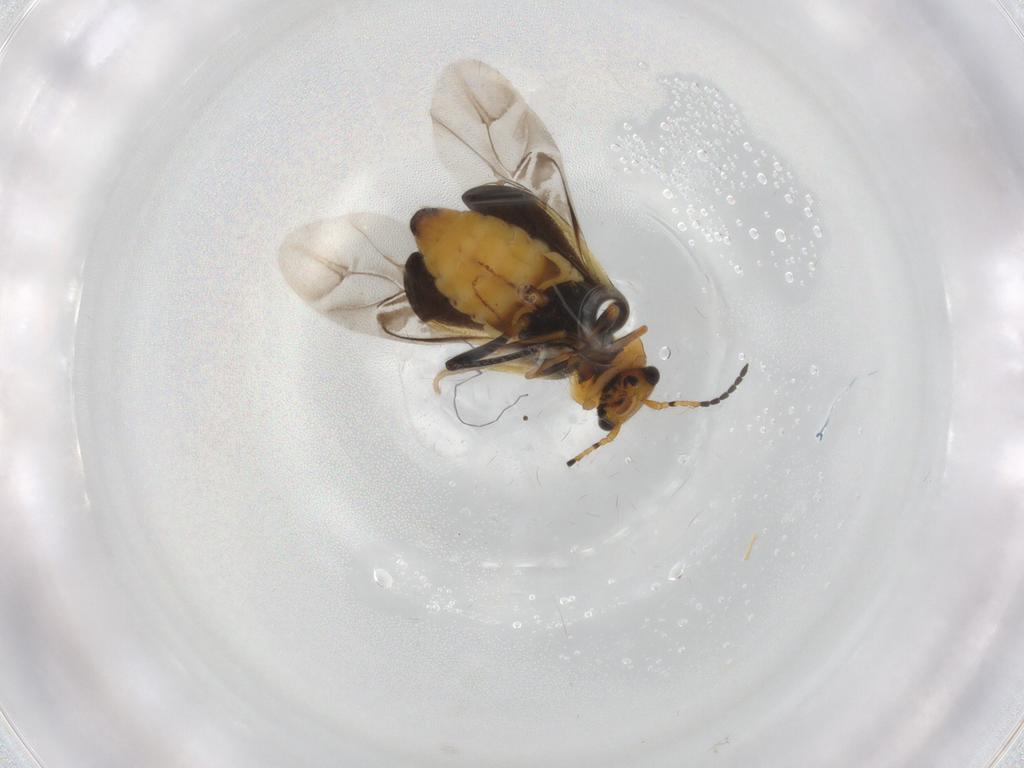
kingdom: Animalia
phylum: Arthropoda
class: Insecta
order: Coleoptera
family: Melyridae
